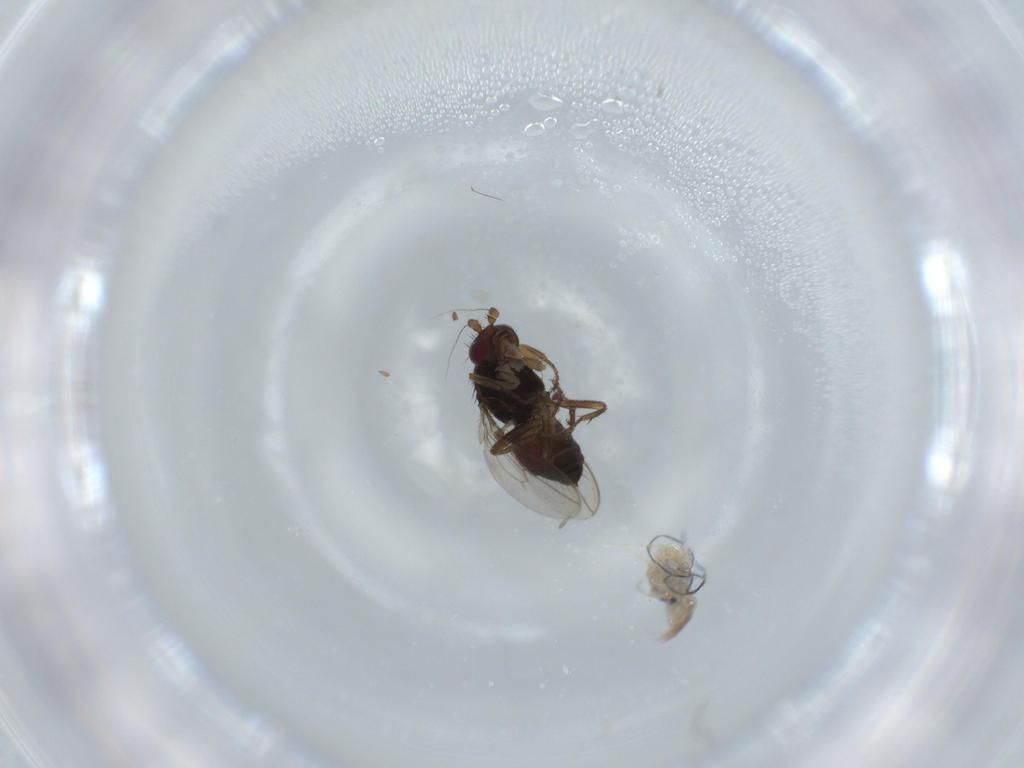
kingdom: Animalia
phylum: Arthropoda
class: Insecta
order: Diptera
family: Sphaeroceridae
